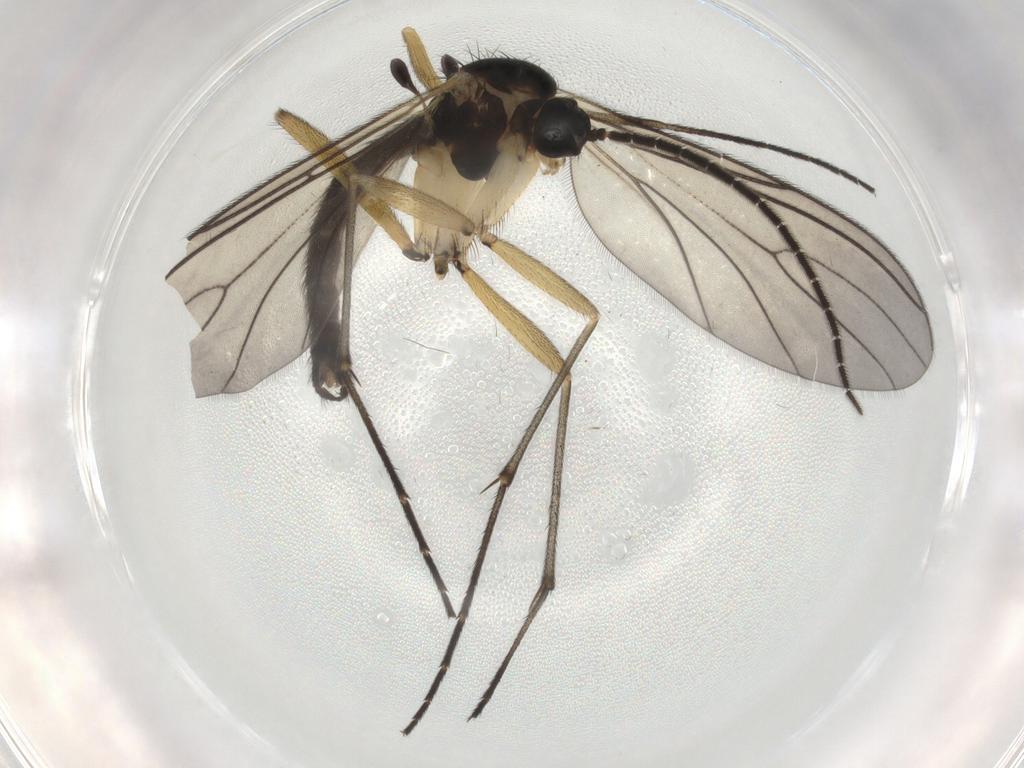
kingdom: Animalia
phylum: Arthropoda
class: Insecta
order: Diptera
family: Sciaridae
